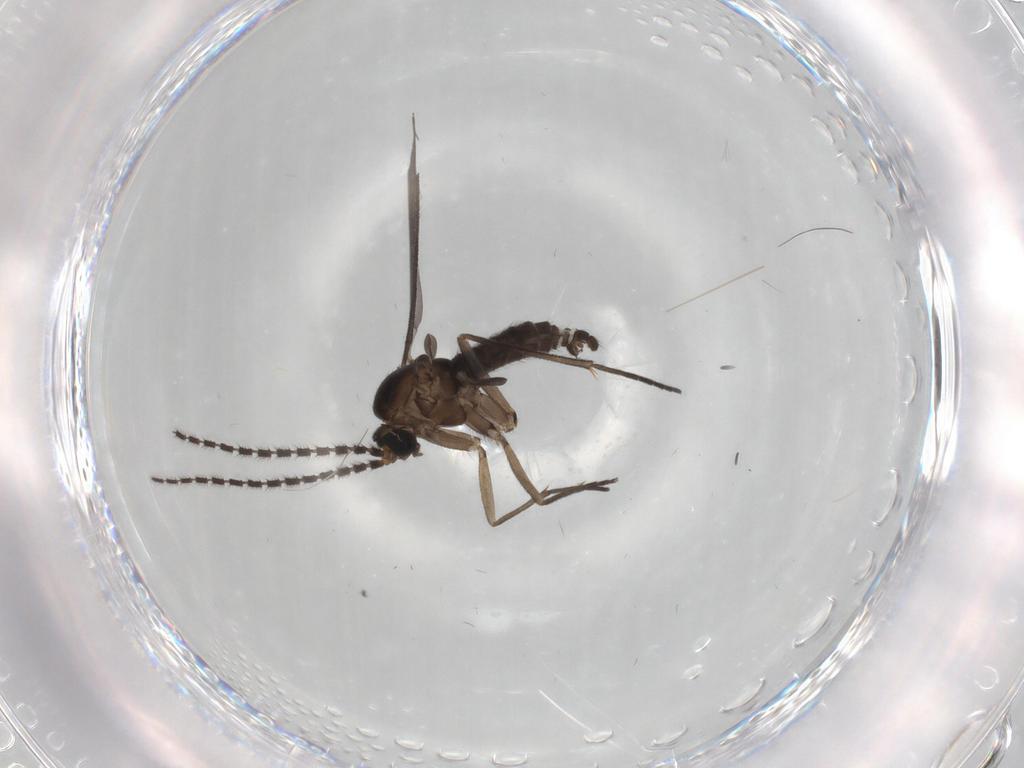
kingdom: Animalia
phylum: Arthropoda
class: Insecta
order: Diptera
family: Sciaridae
